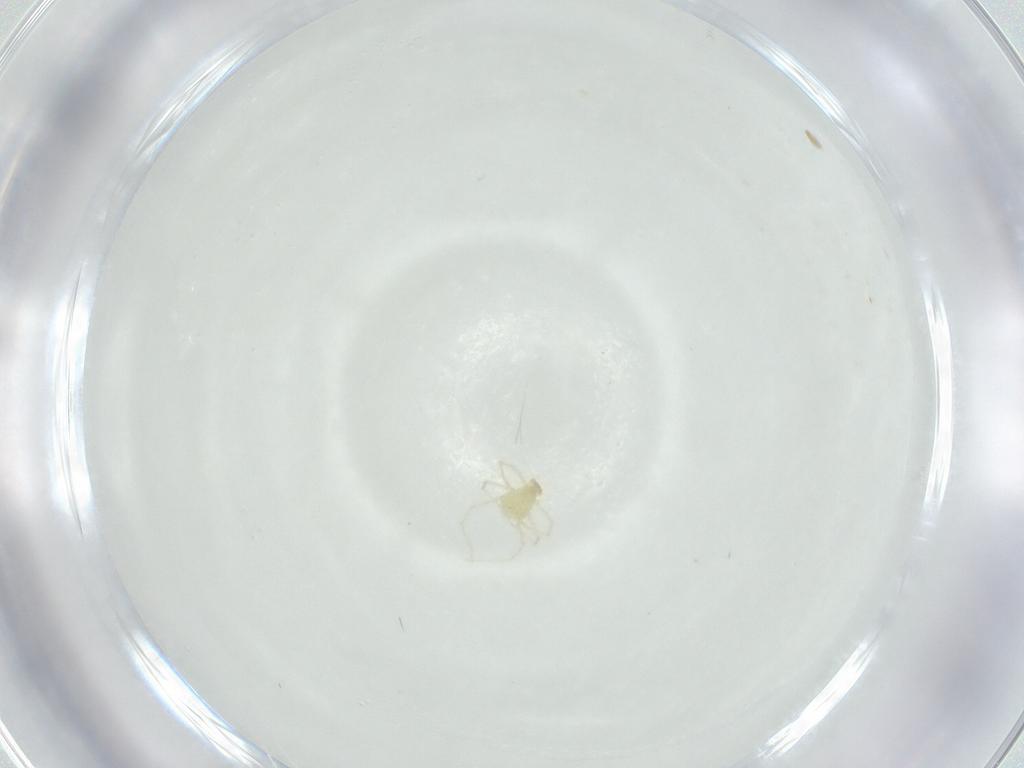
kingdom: Animalia
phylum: Arthropoda
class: Arachnida
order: Trombidiformes
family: Erythraeidae
